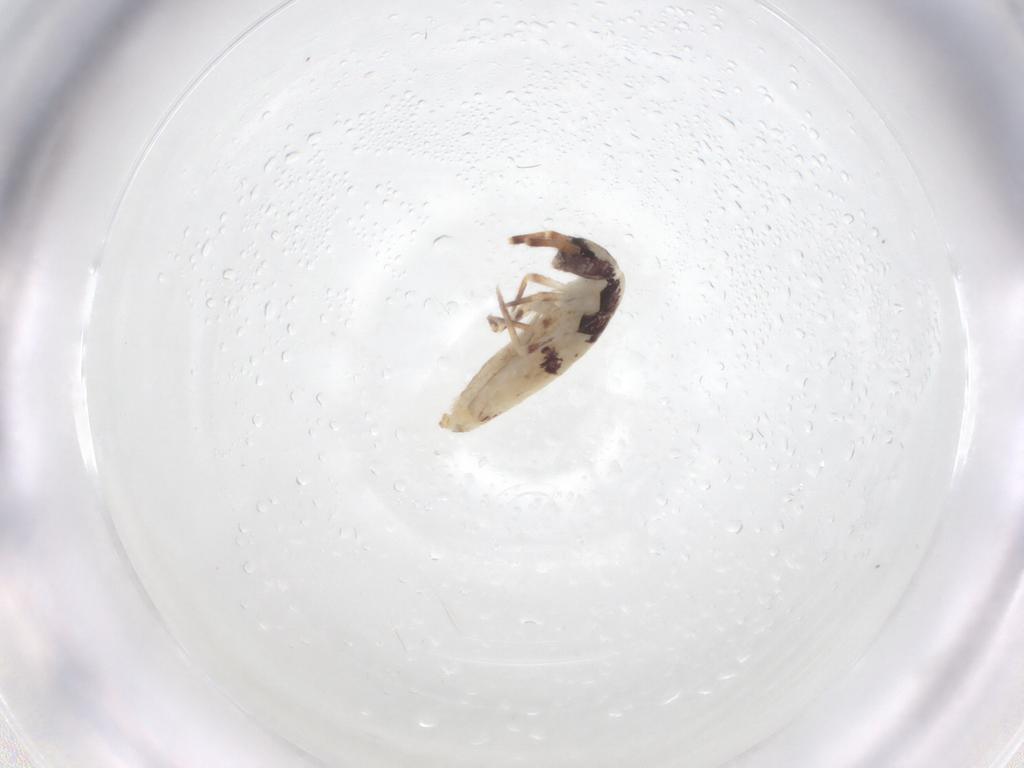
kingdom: Animalia
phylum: Arthropoda
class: Collembola
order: Entomobryomorpha
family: Entomobryidae
